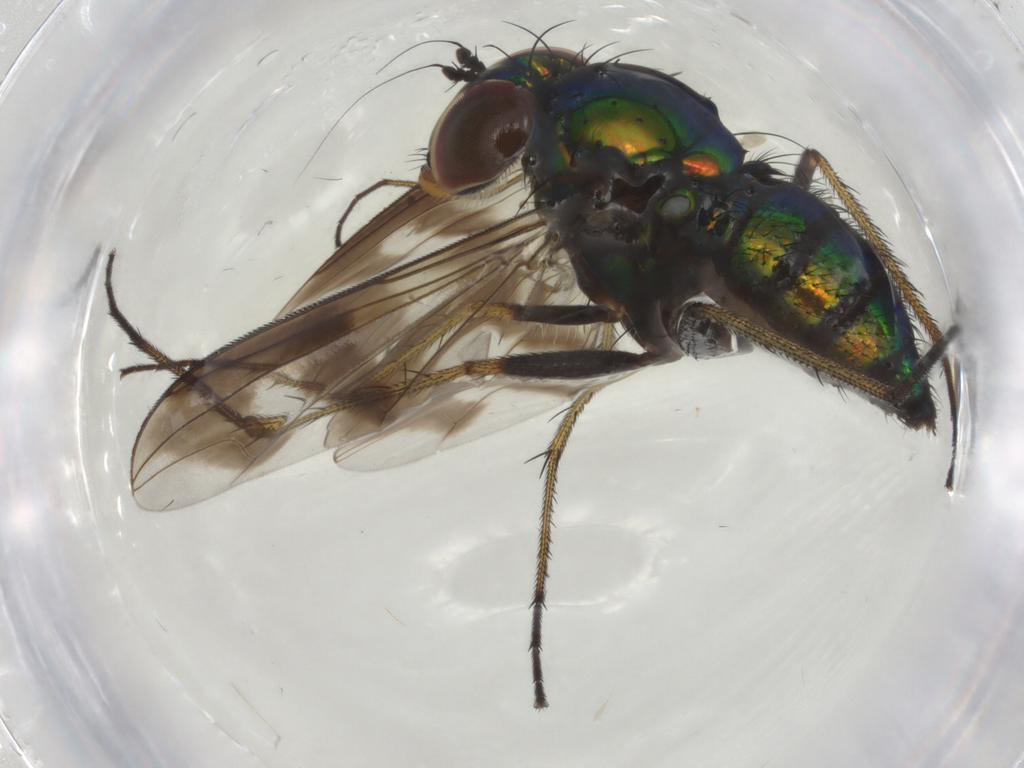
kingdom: Animalia
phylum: Arthropoda
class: Insecta
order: Diptera
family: Dolichopodidae
